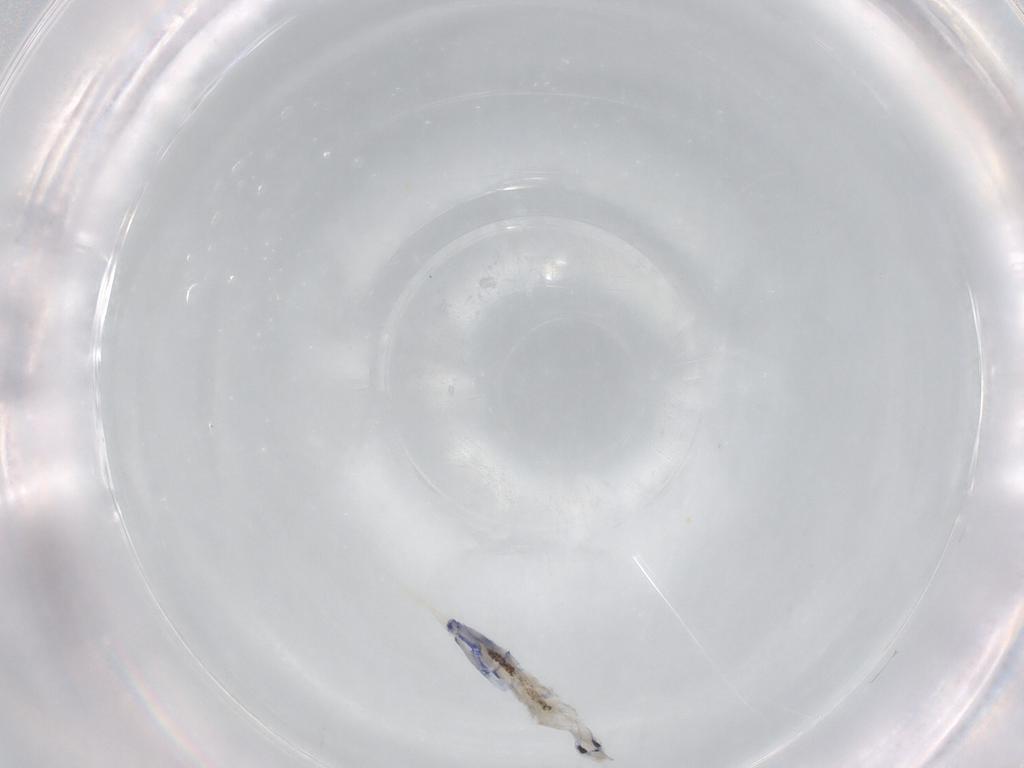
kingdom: Animalia
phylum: Arthropoda
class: Collembola
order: Entomobryomorpha
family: Entomobryidae
